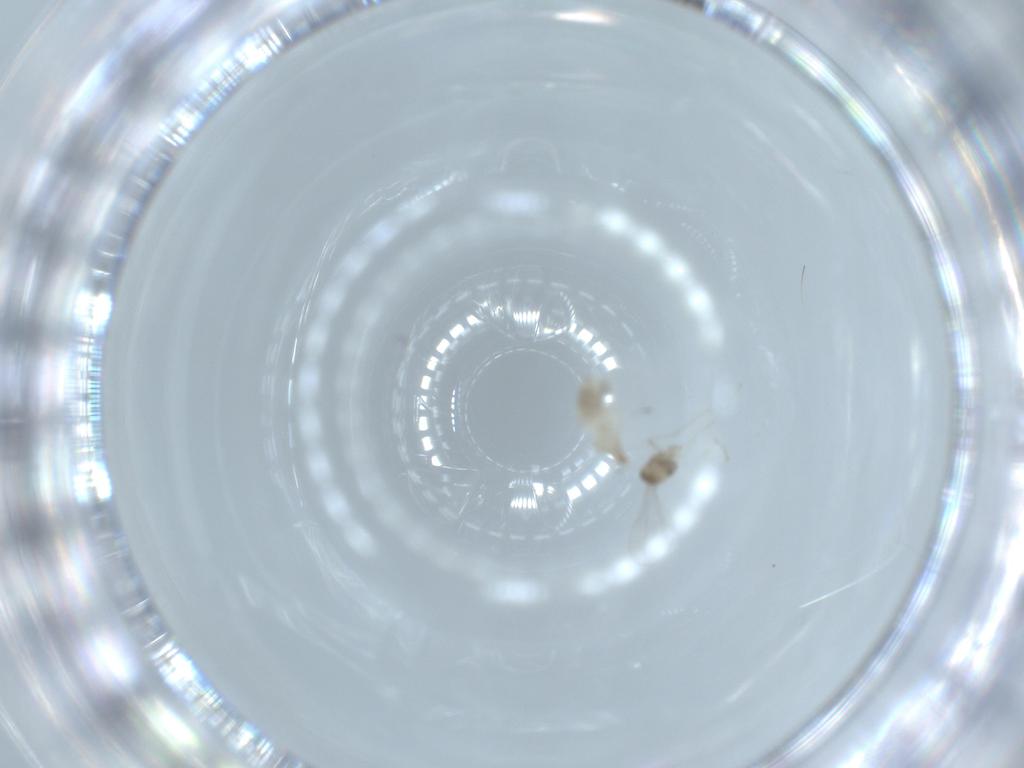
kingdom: Animalia
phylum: Arthropoda
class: Insecta
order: Diptera
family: Cecidomyiidae
